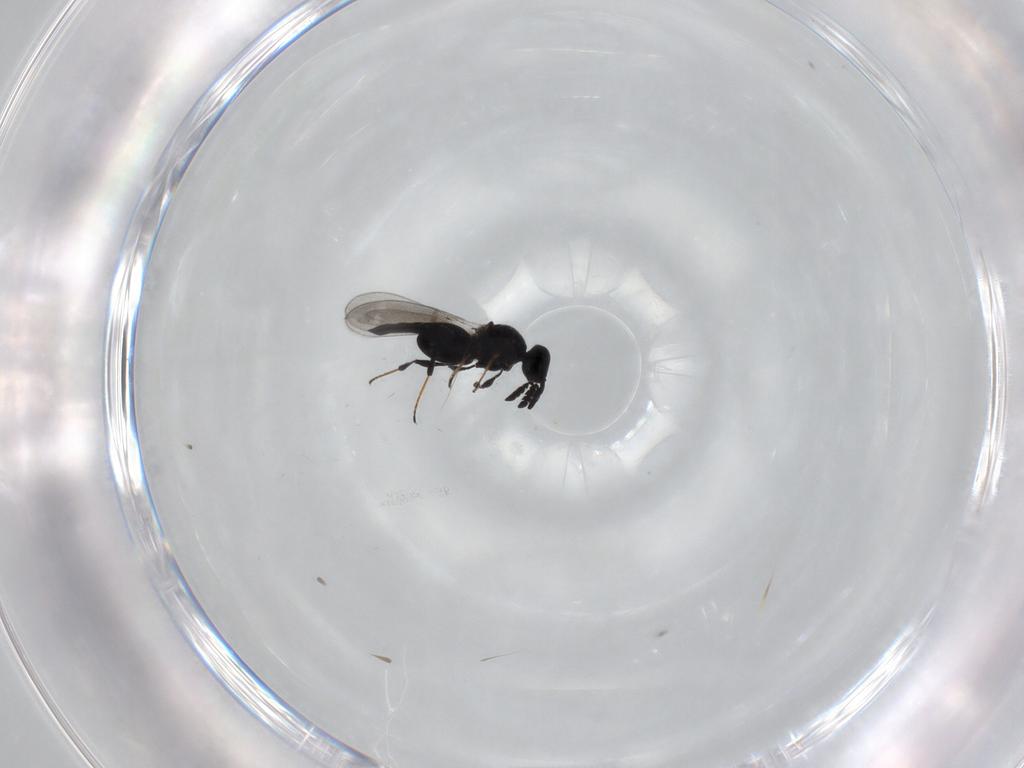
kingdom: Animalia
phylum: Arthropoda
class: Insecta
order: Hymenoptera
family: Platygastridae
